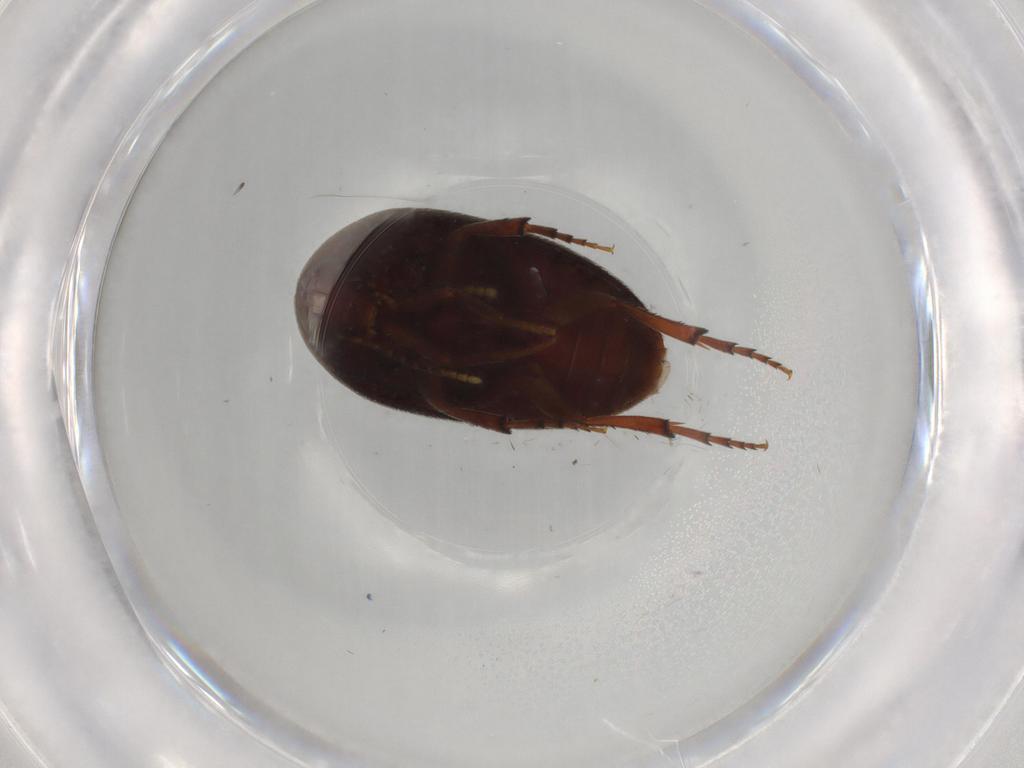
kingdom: Animalia
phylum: Arthropoda
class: Insecta
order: Coleoptera
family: Eucinetidae
